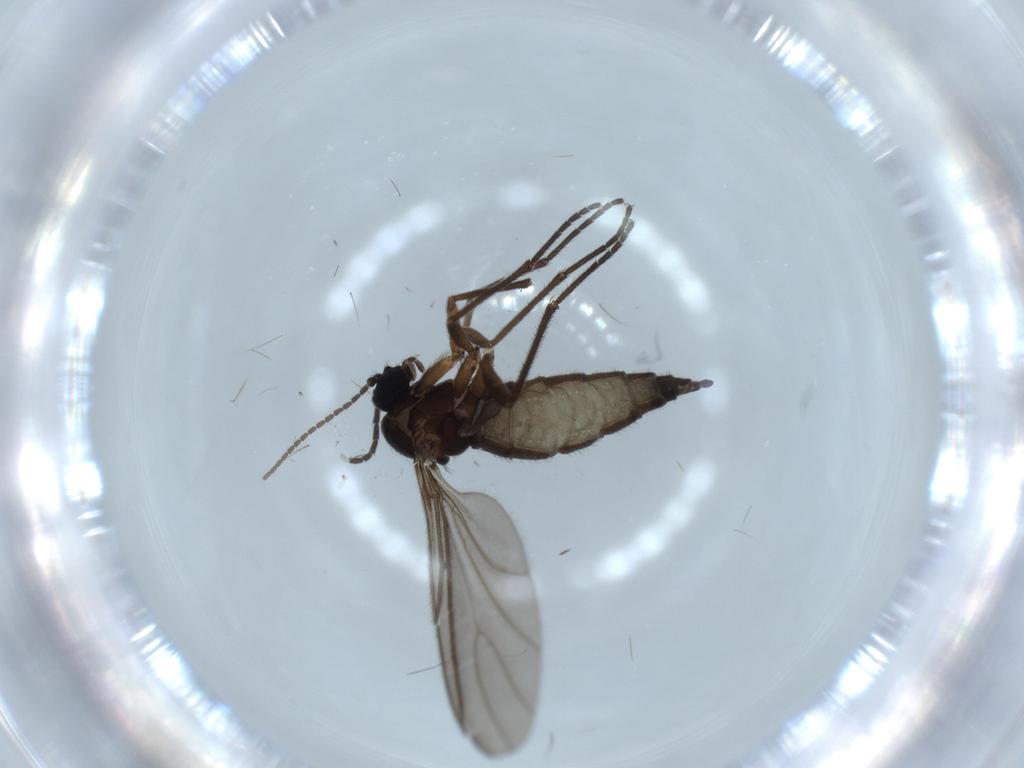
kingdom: Animalia
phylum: Arthropoda
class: Insecta
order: Diptera
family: Sciaridae
